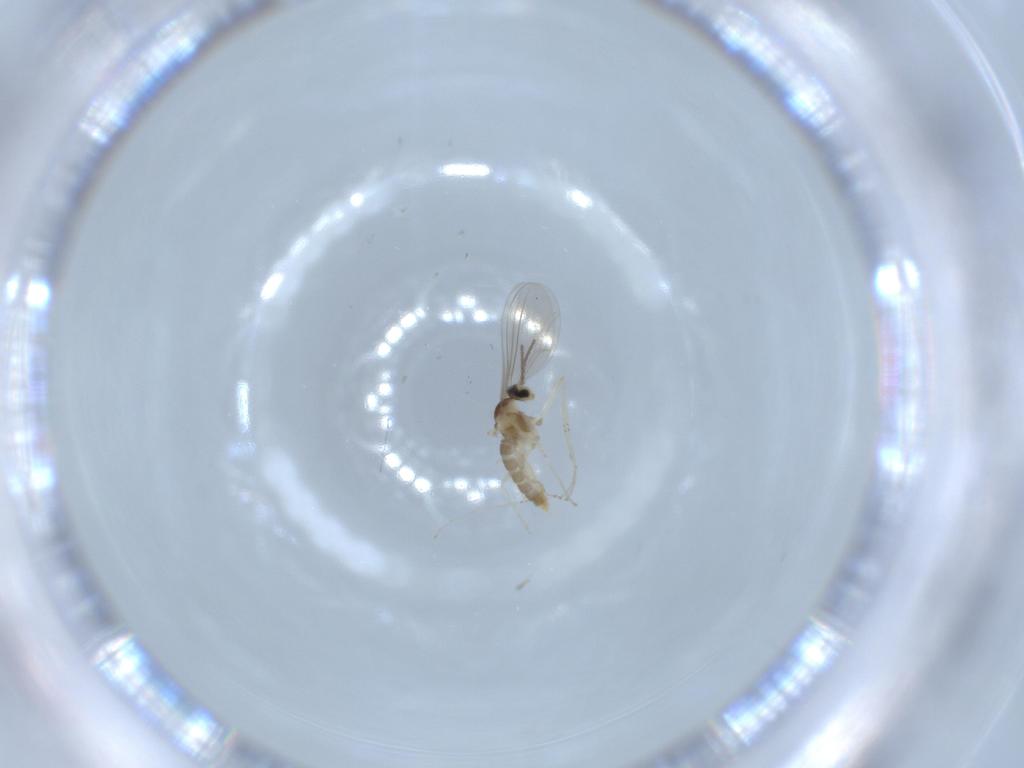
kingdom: Animalia
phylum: Arthropoda
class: Insecta
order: Diptera
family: Cecidomyiidae
